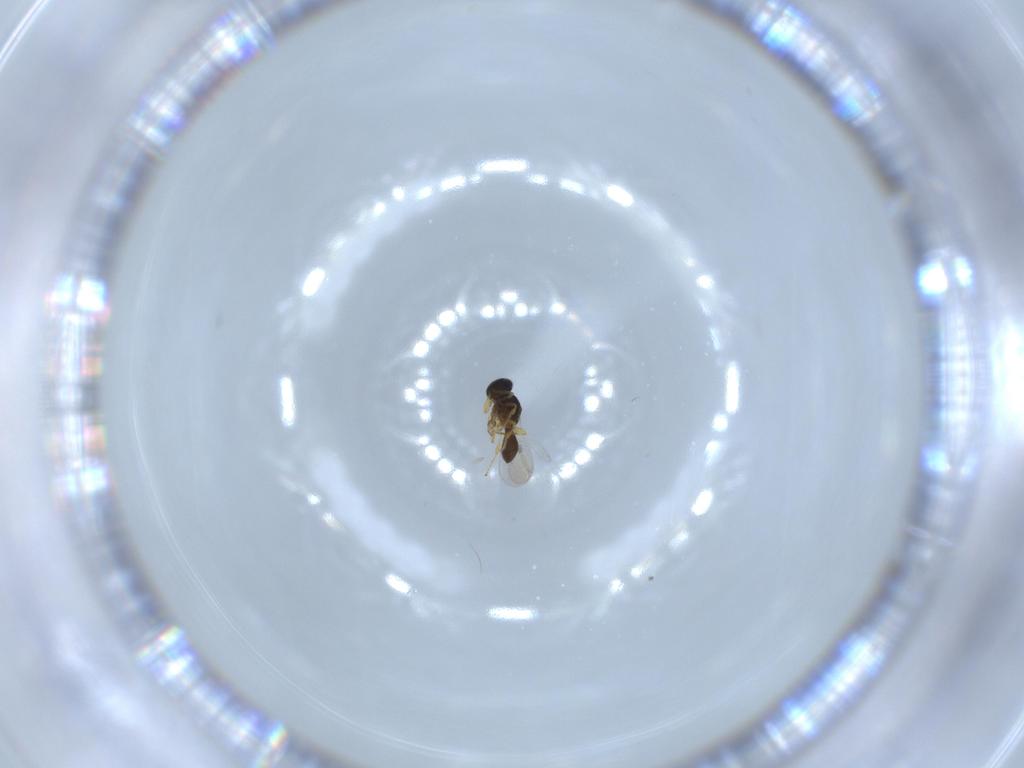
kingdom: Animalia
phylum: Arthropoda
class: Insecta
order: Hymenoptera
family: Platygastridae
